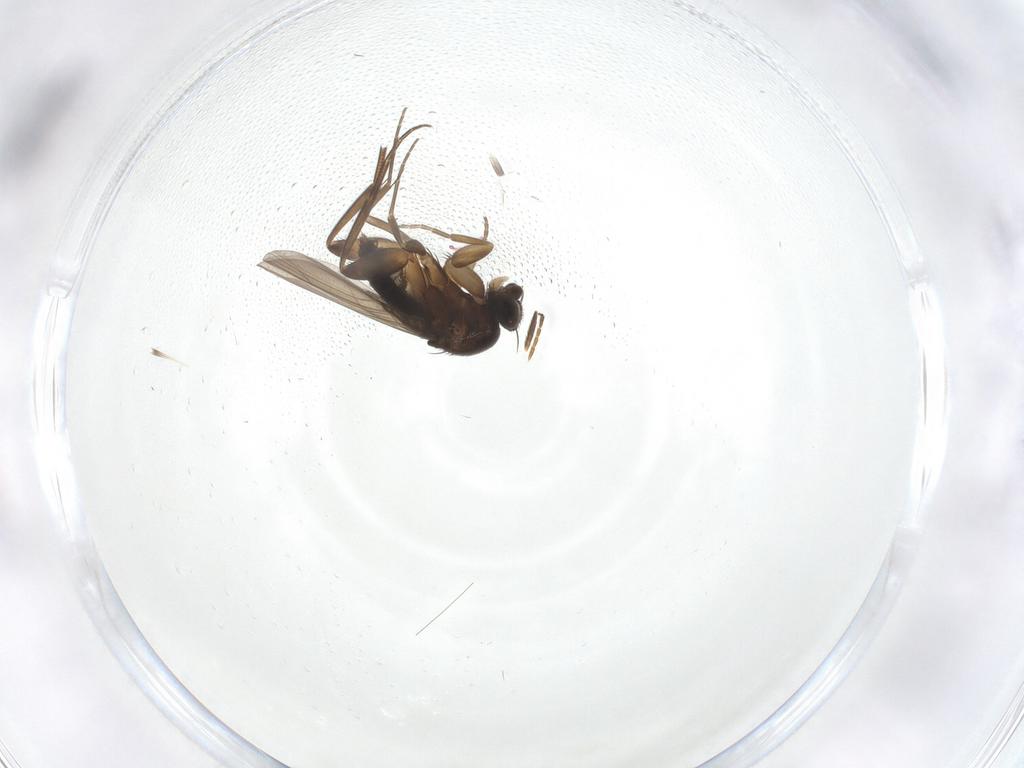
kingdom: Animalia
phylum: Arthropoda
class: Insecta
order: Diptera
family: Phoridae
